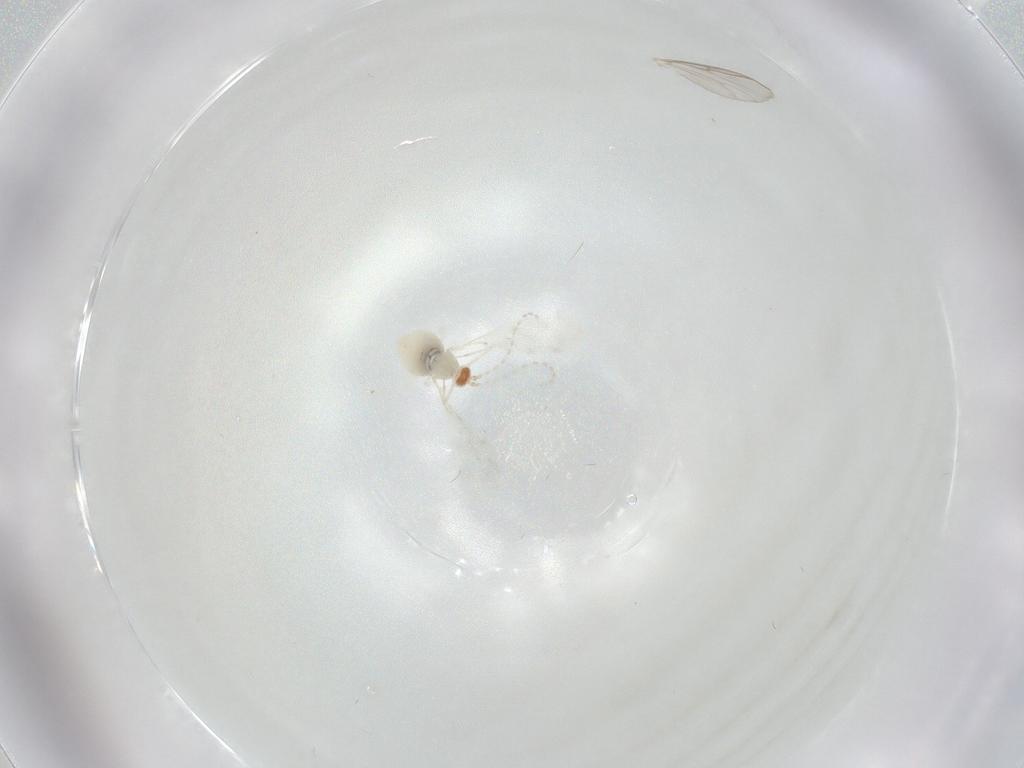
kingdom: Animalia
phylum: Arthropoda
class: Insecta
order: Diptera
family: Cecidomyiidae
